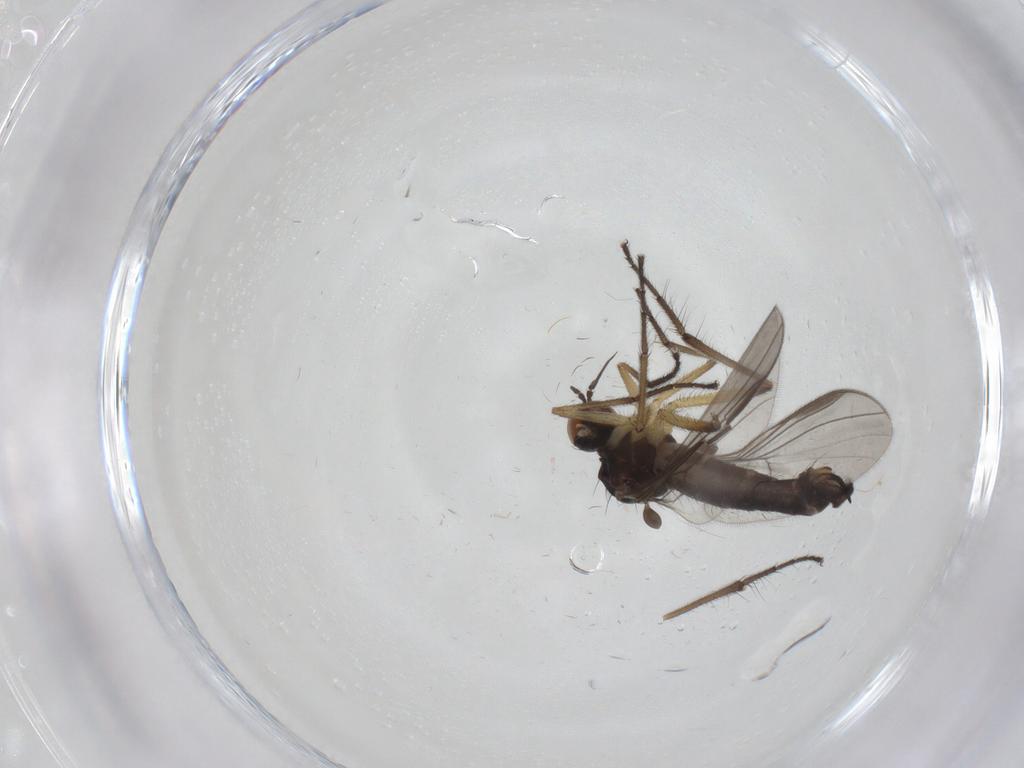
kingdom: Animalia
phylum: Arthropoda
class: Insecta
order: Diptera
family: Empididae
